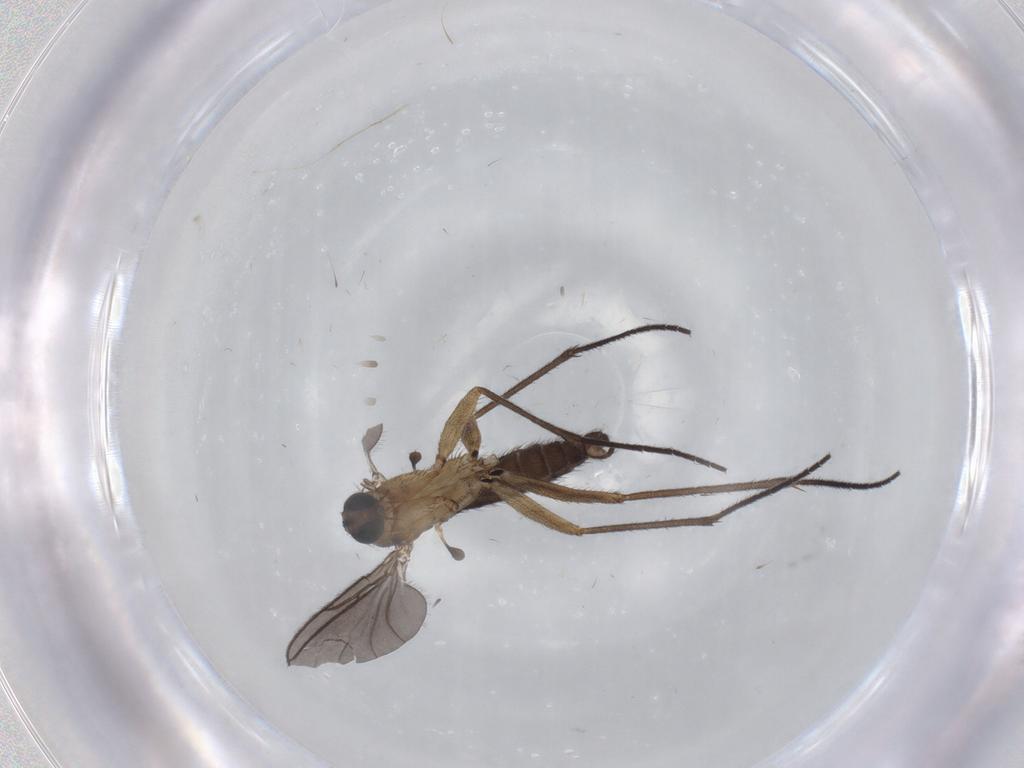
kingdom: Animalia
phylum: Arthropoda
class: Insecta
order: Diptera
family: Sciaridae
